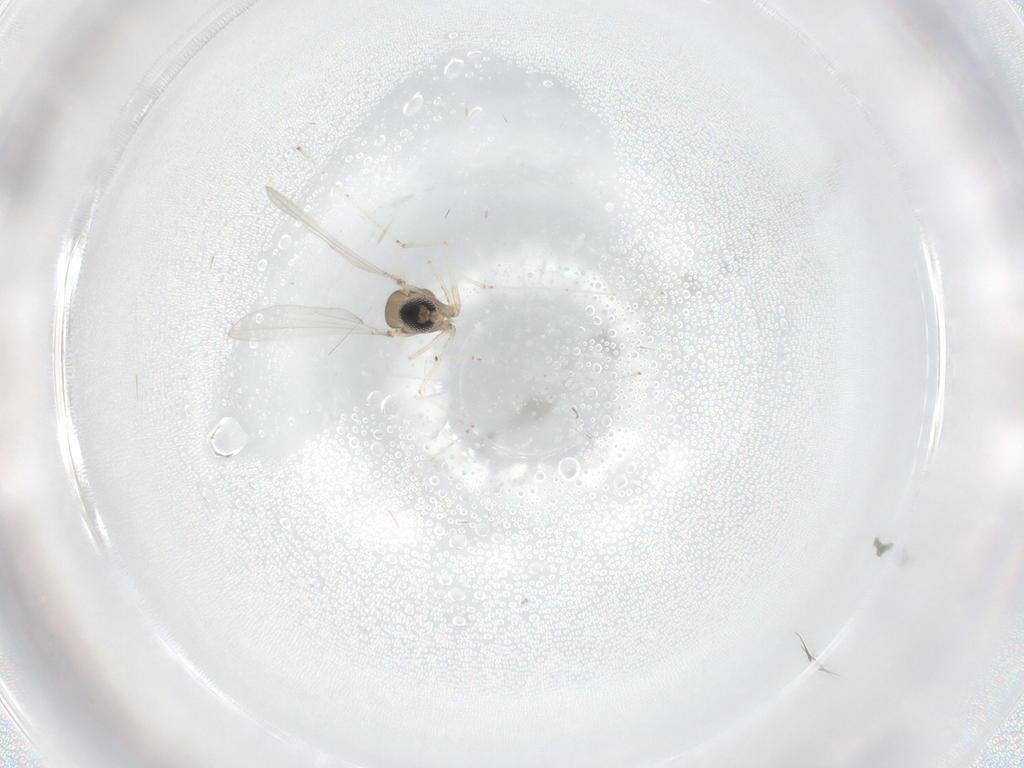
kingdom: Animalia
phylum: Arthropoda
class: Insecta
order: Diptera
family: Cecidomyiidae
